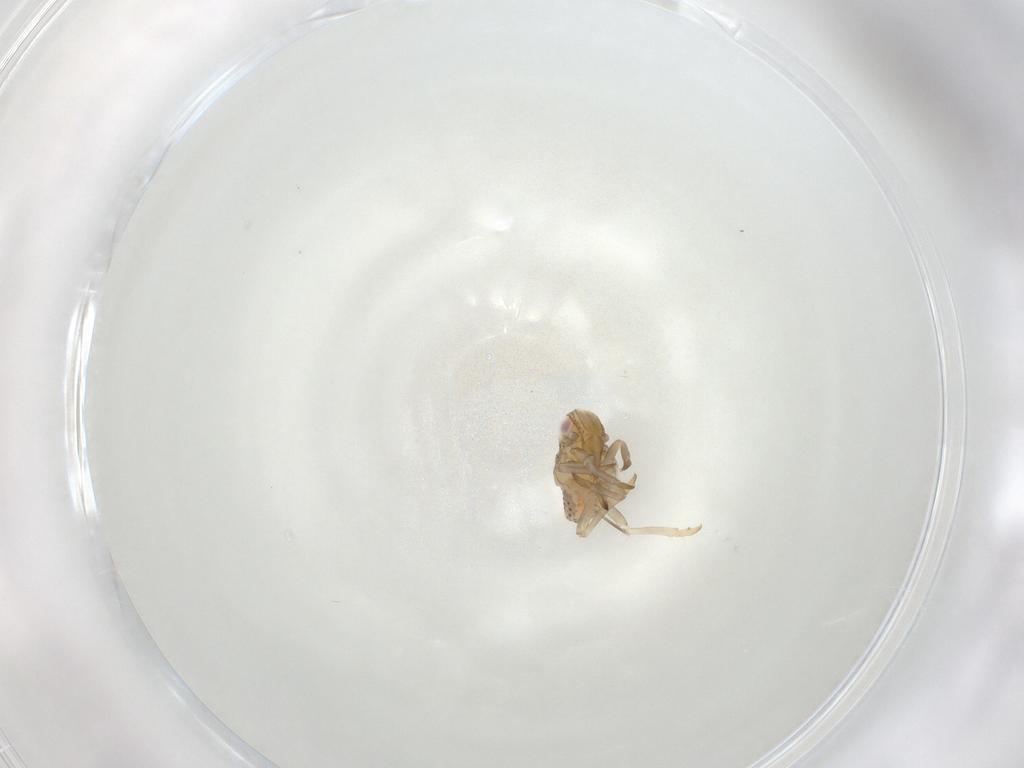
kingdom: Animalia
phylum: Arthropoda
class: Insecta
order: Hemiptera
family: Tropiduchidae
